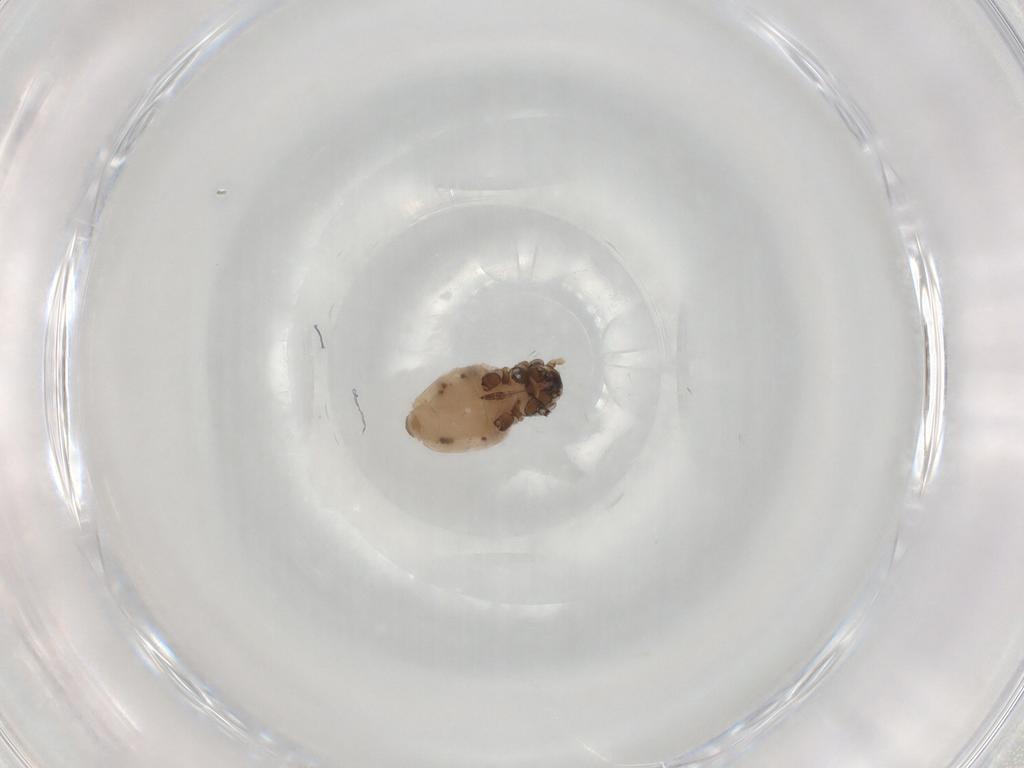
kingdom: Animalia
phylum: Arthropoda
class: Insecta
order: Hemiptera
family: Aphididae
